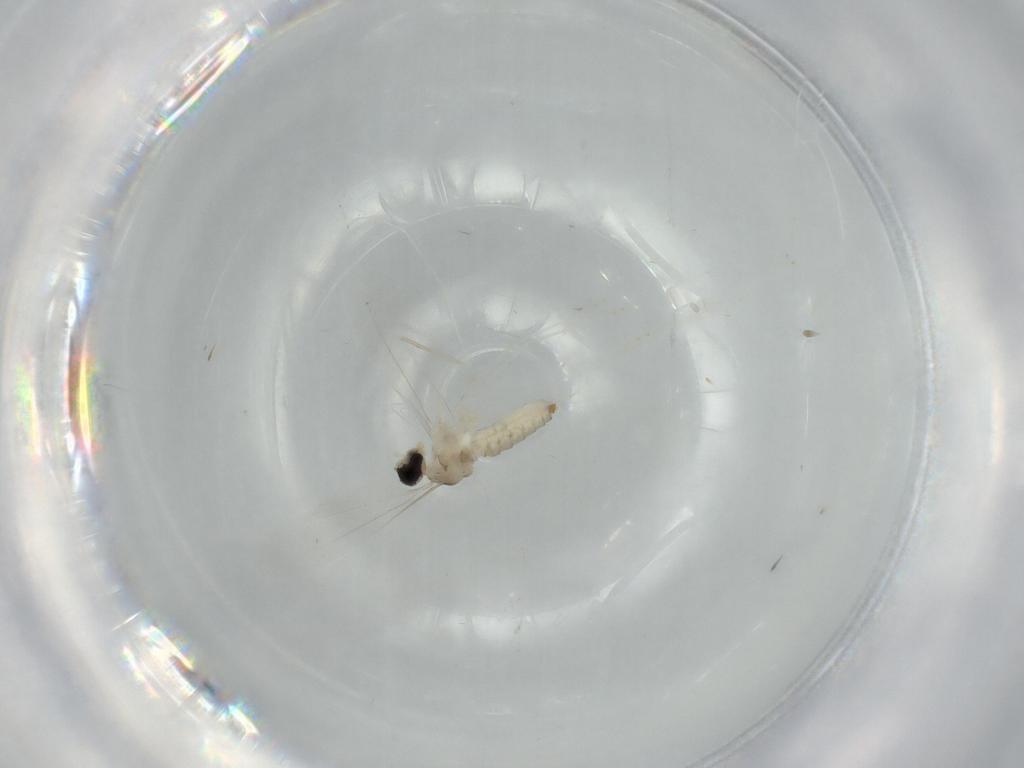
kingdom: Animalia
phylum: Arthropoda
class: Insecta
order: Diptera
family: Cecidomyiidae
